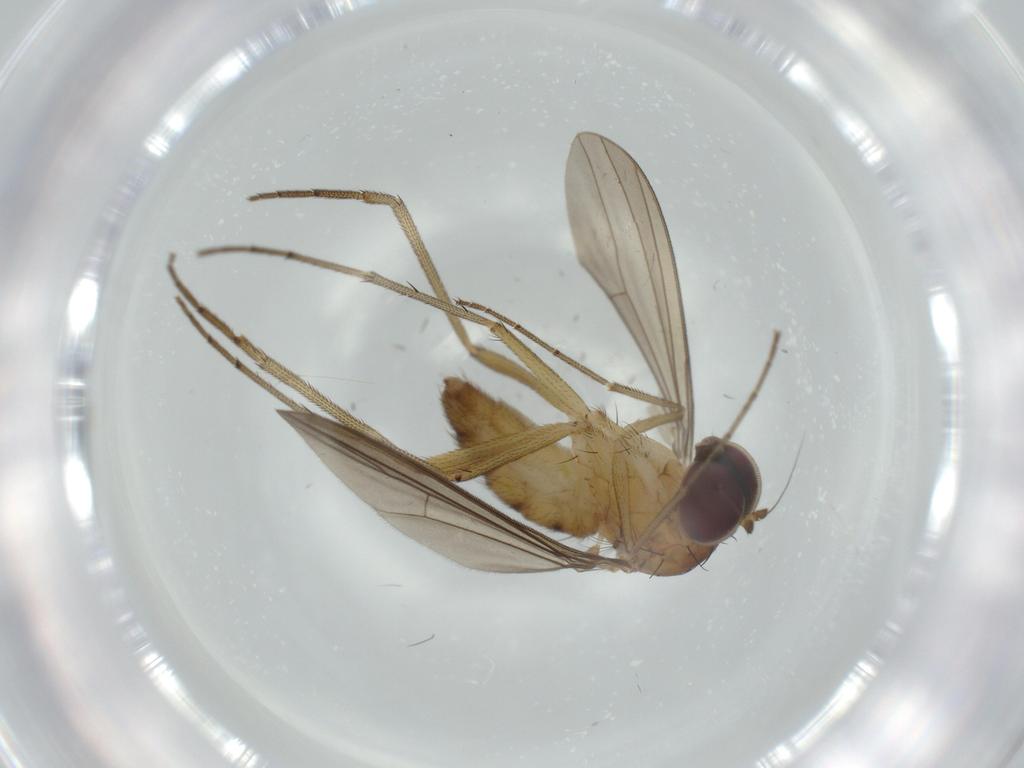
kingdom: Animalia
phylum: Arthropoda
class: Insecta
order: Diptera
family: Dolichopodidae
